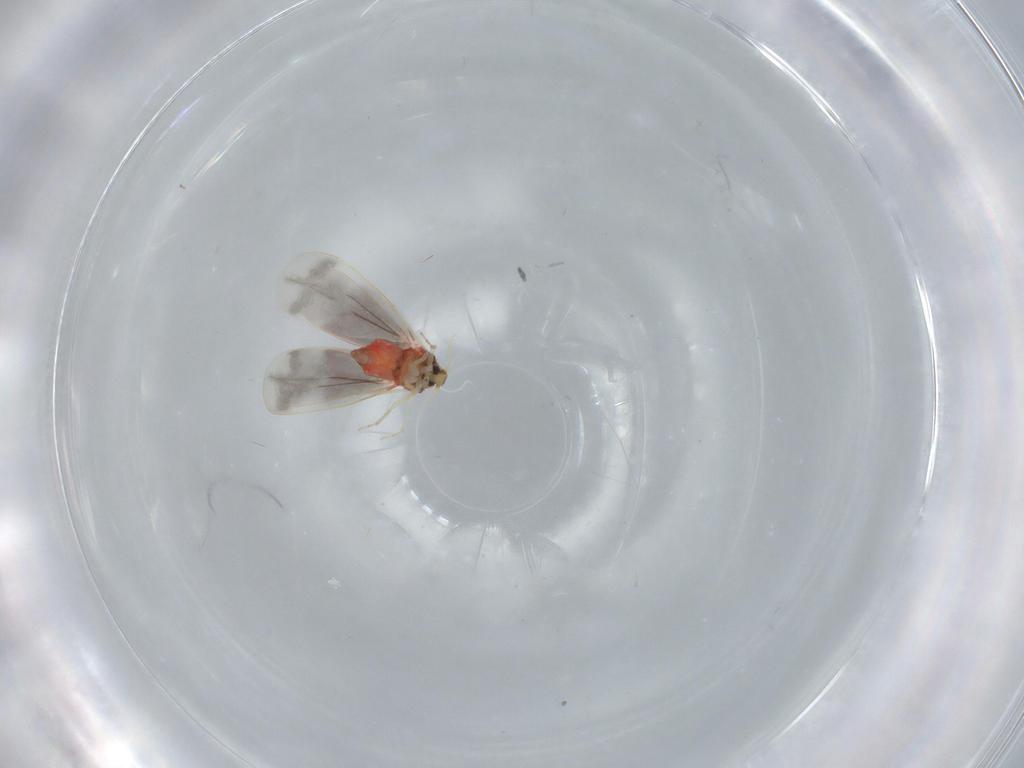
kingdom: Animalia
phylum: Arthropoda
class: Insecta
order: Hemiptera
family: Aleyrodidae
